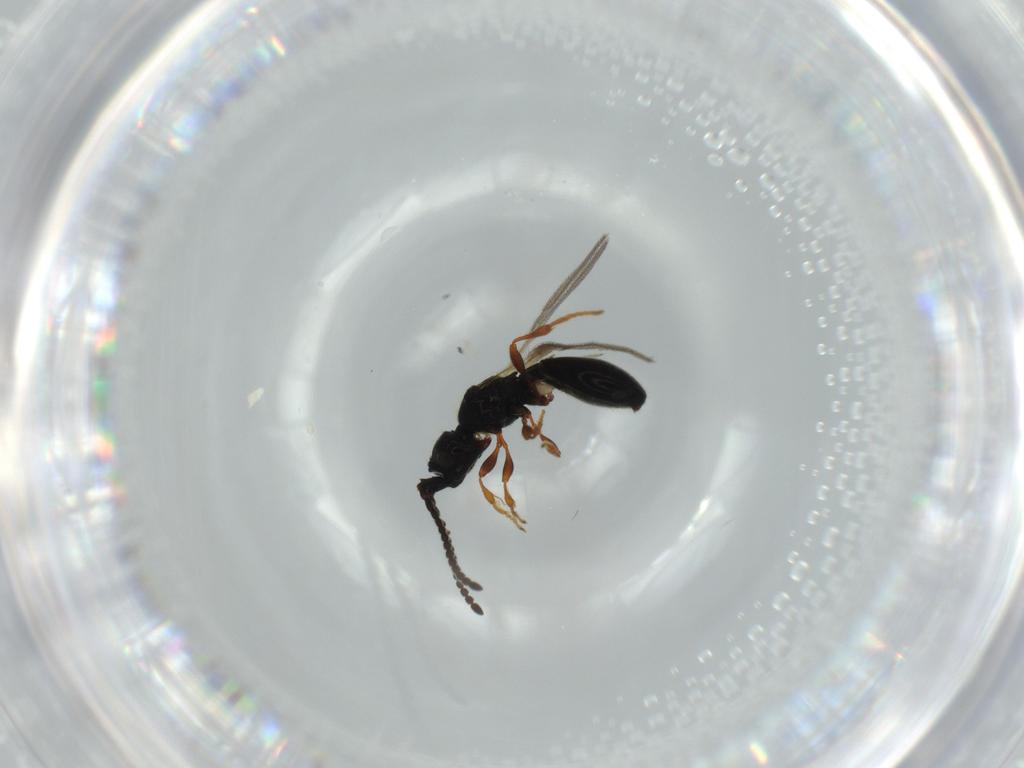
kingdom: Animalia
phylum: Arthropoda
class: Insecta
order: Hymenoptera
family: Diapriidae
